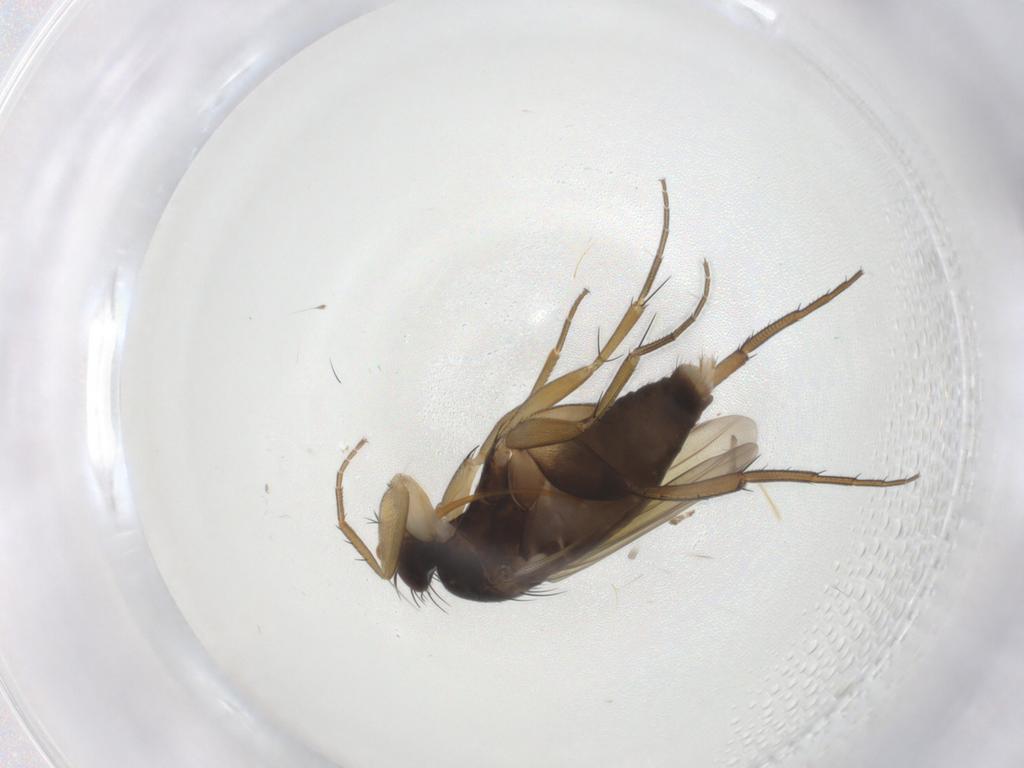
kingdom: Animalia
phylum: Arthropoda
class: Insecta
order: Diptera
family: Phoridae
